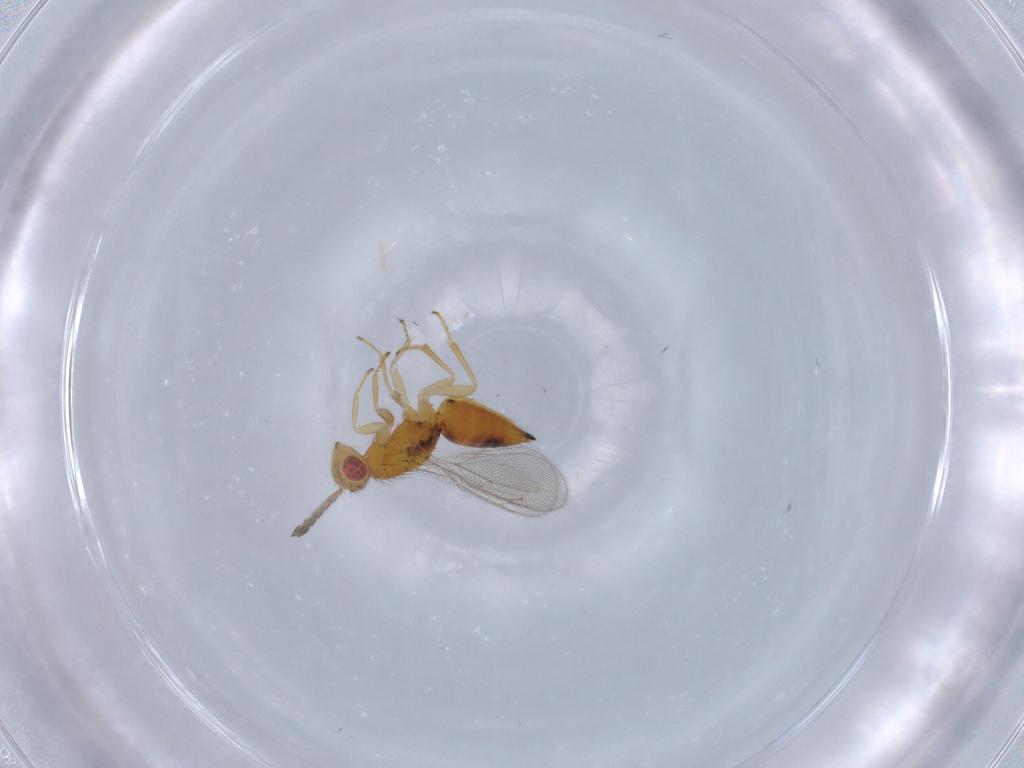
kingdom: Animalia
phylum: Arthropoda
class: Insecta
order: Hymenoptera
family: Eulophidae
